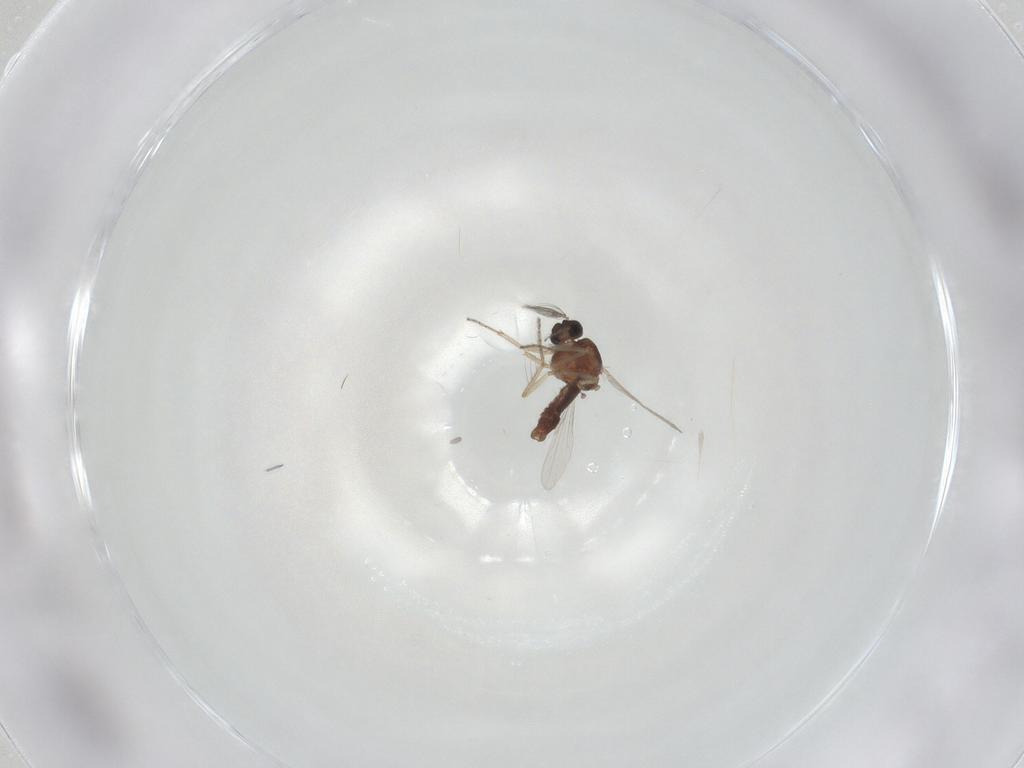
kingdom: Animalia
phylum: Arthropoda
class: Insecta
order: Diptera
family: Ceratopogonidae
